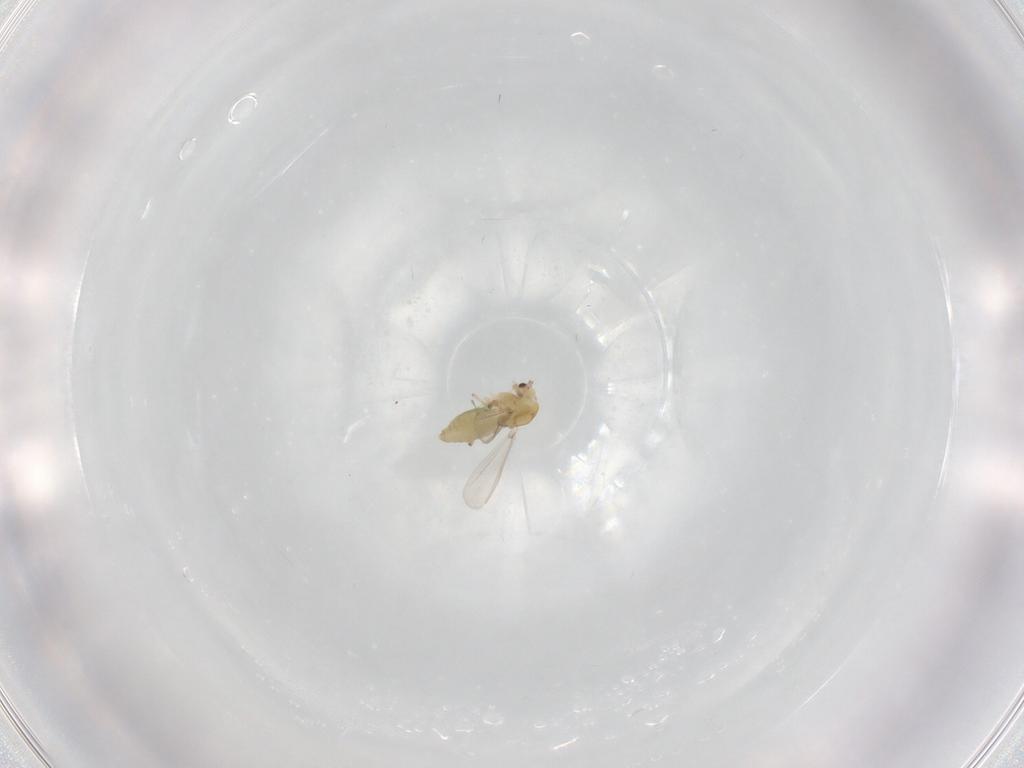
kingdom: Animalia
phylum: Arthropoda
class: Insecta
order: Diptera
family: Chironomidae
